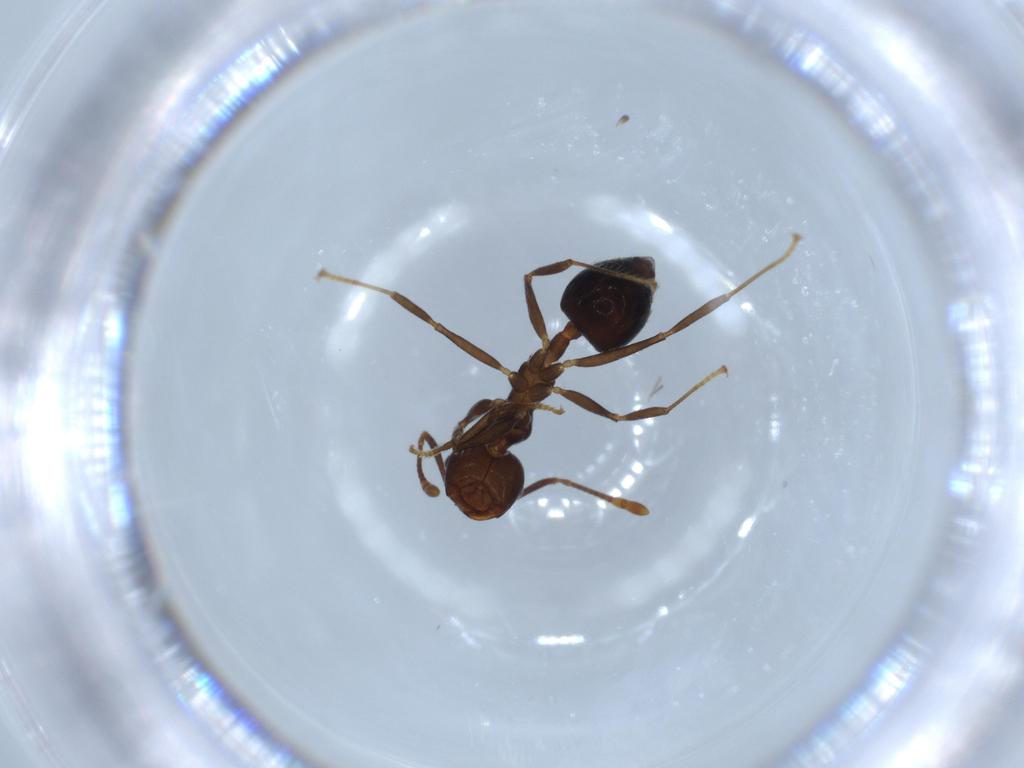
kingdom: Animalia
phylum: Arthropoda
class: Insecta
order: Hymenoptera
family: Formicidae
